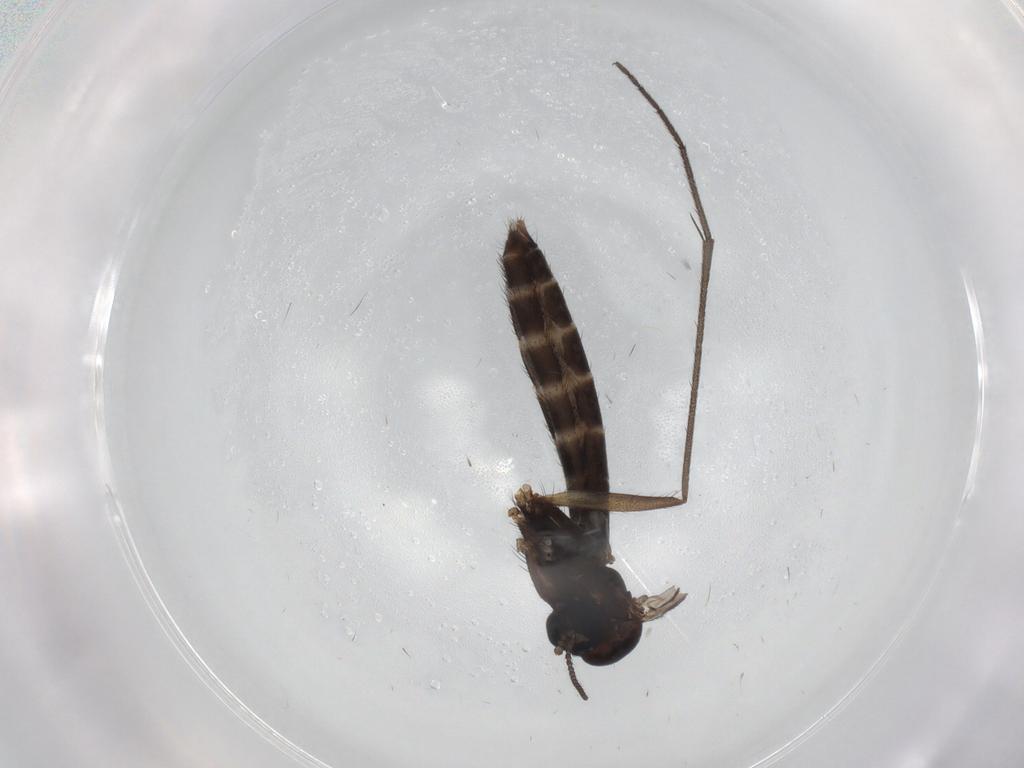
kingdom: Animalia
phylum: Arthropoda
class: Insecta
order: Diptera
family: Ditomyiidae
